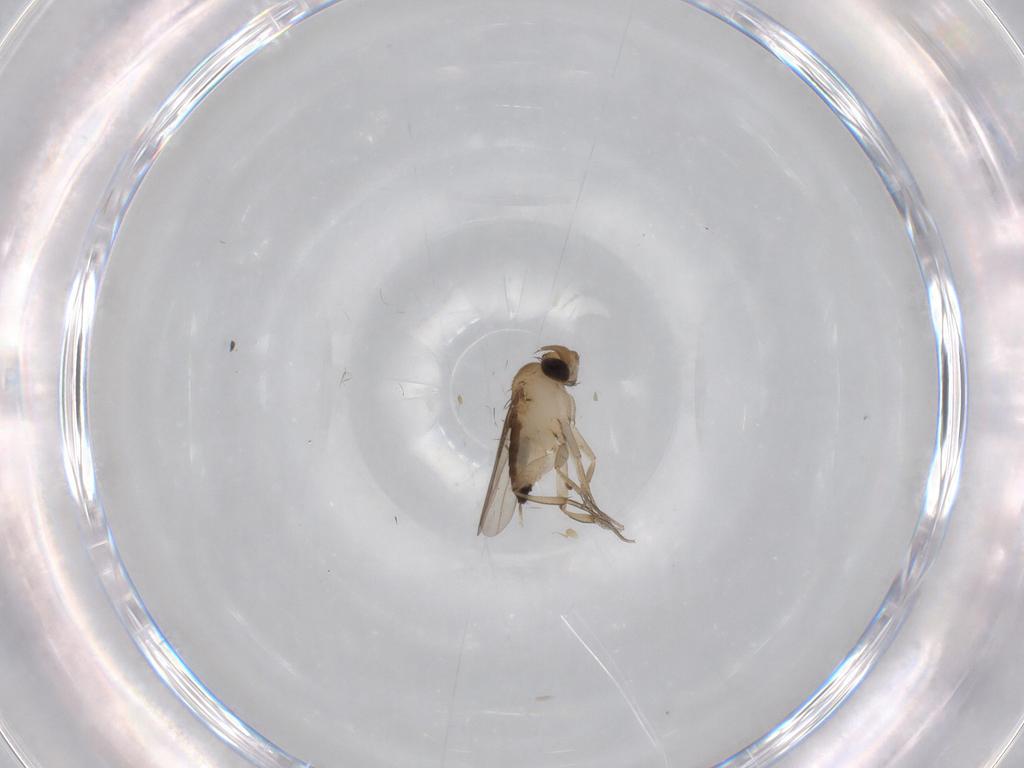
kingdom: Animalia
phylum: Arthropoda
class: Insecta
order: Diptera
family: Phoridae
